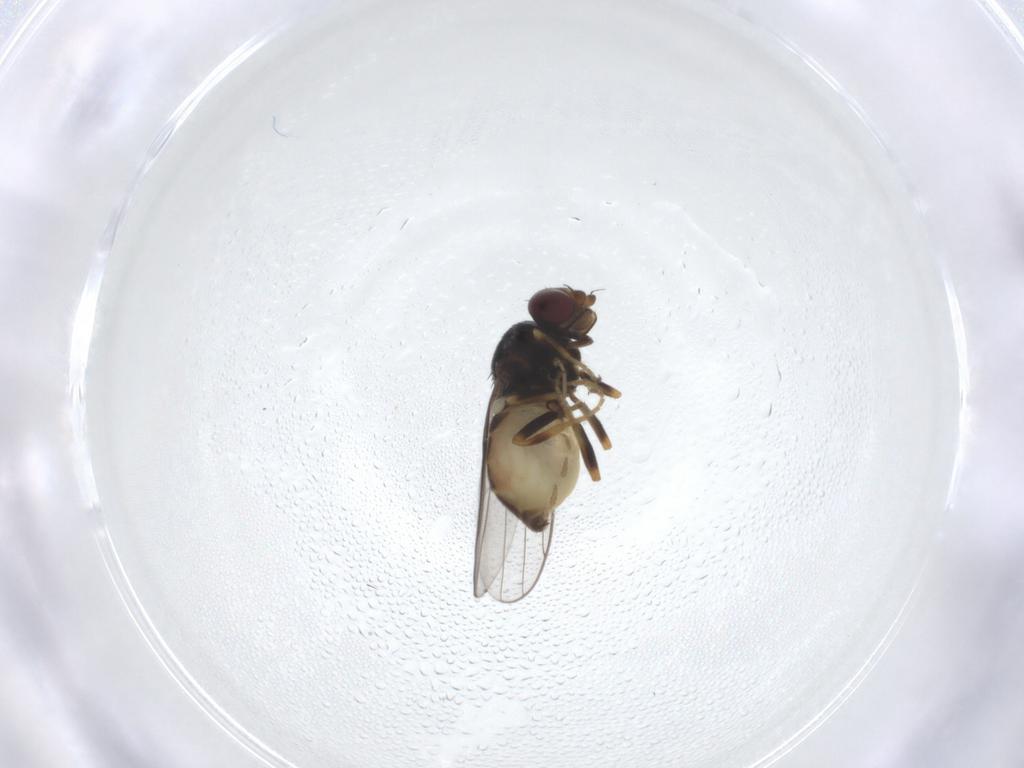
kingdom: Animalia
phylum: Arthropoda
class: Insecta
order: Diptera
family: Chloropidae
